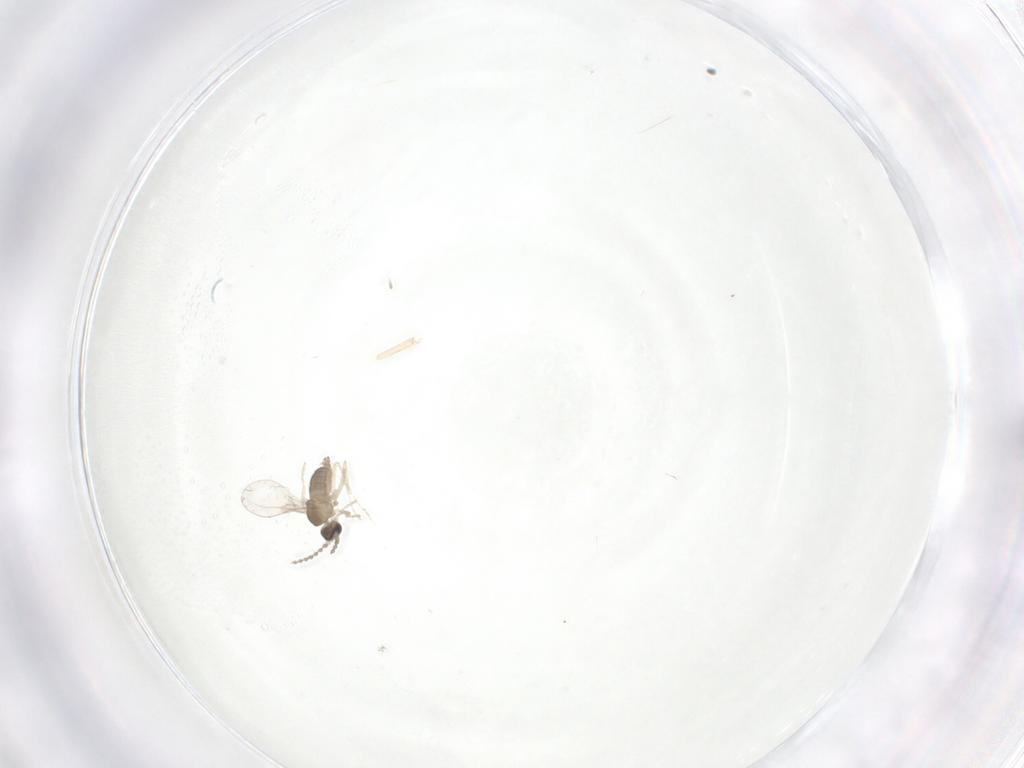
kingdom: Animalia
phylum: Arthropoda
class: Insecta
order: Diptera
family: Cecidomyiidae
